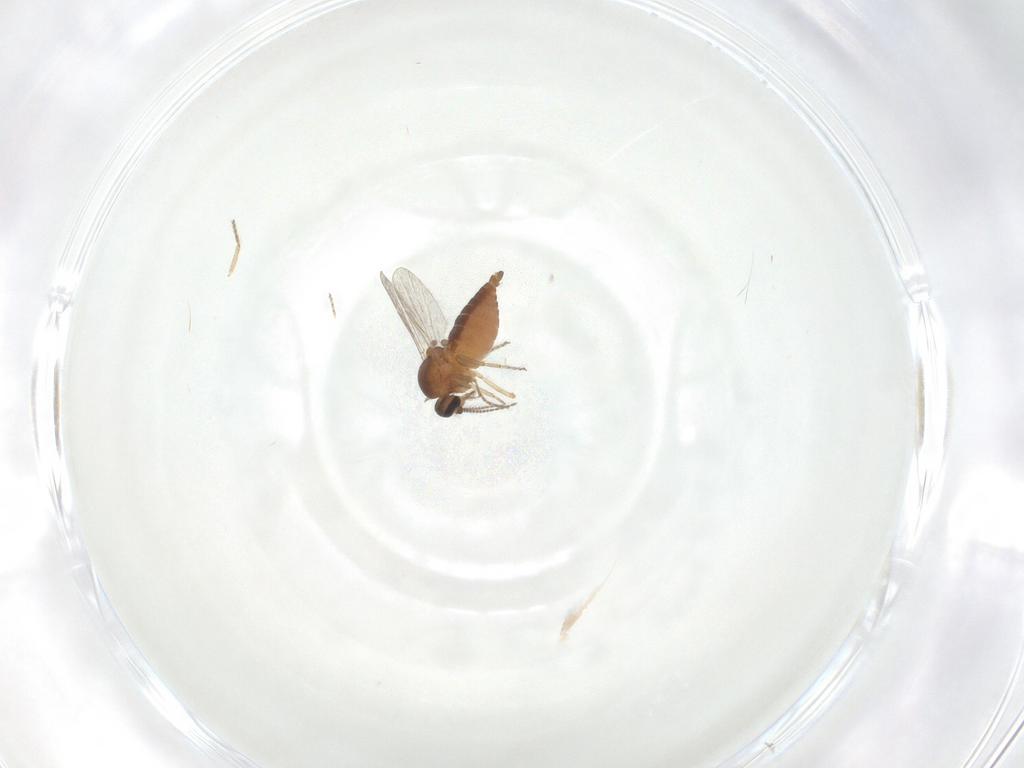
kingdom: Animalia
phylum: Arthropoda
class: Insecta
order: Diptera
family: Ceratopogonidae
